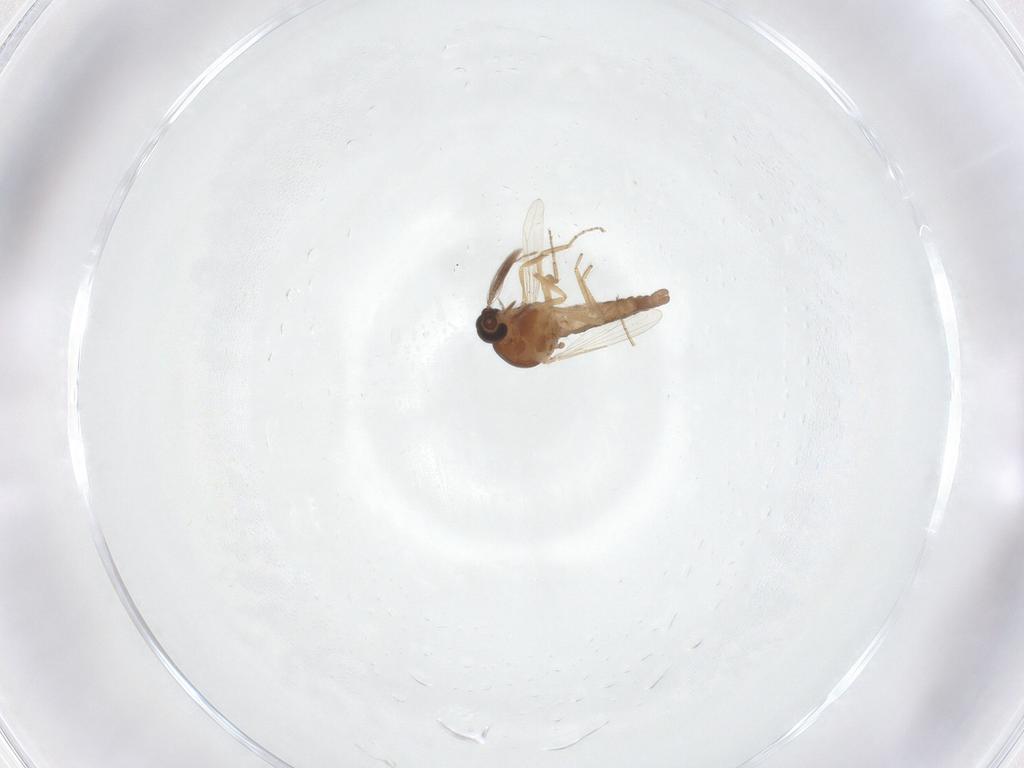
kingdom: Animalia
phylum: Arthropoda
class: Insecta
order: Diptera
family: Ceratopogonidae
